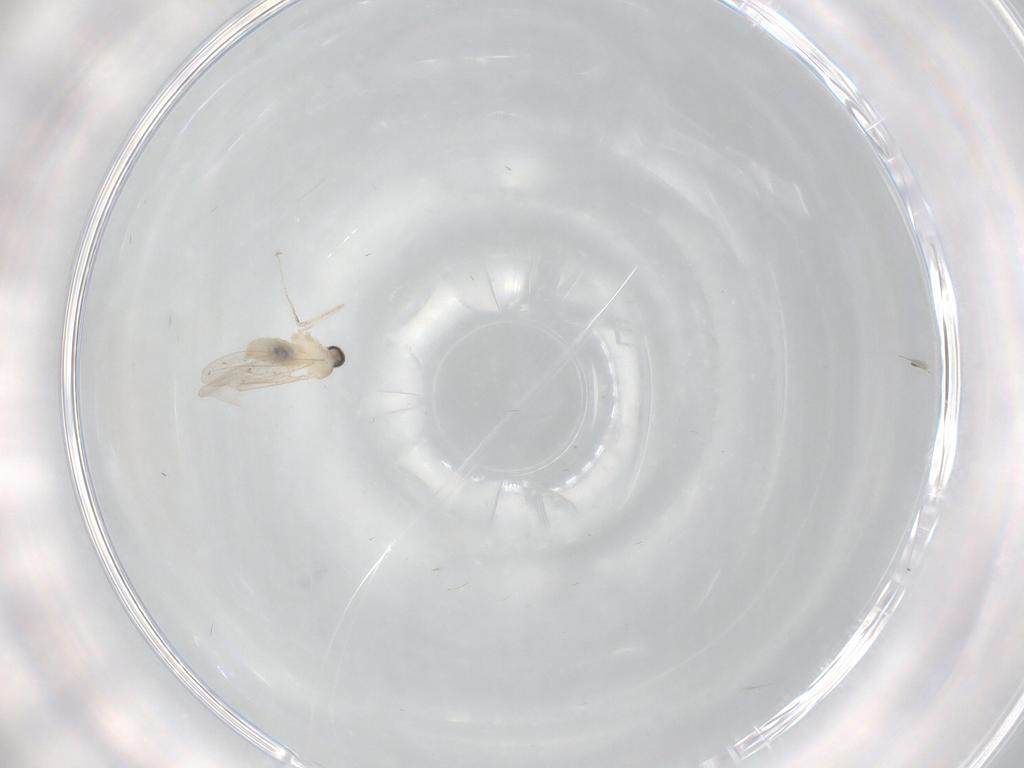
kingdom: Animalia
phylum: Arthropoda
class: Insecta
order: Diptera
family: Cecidomyiidae
